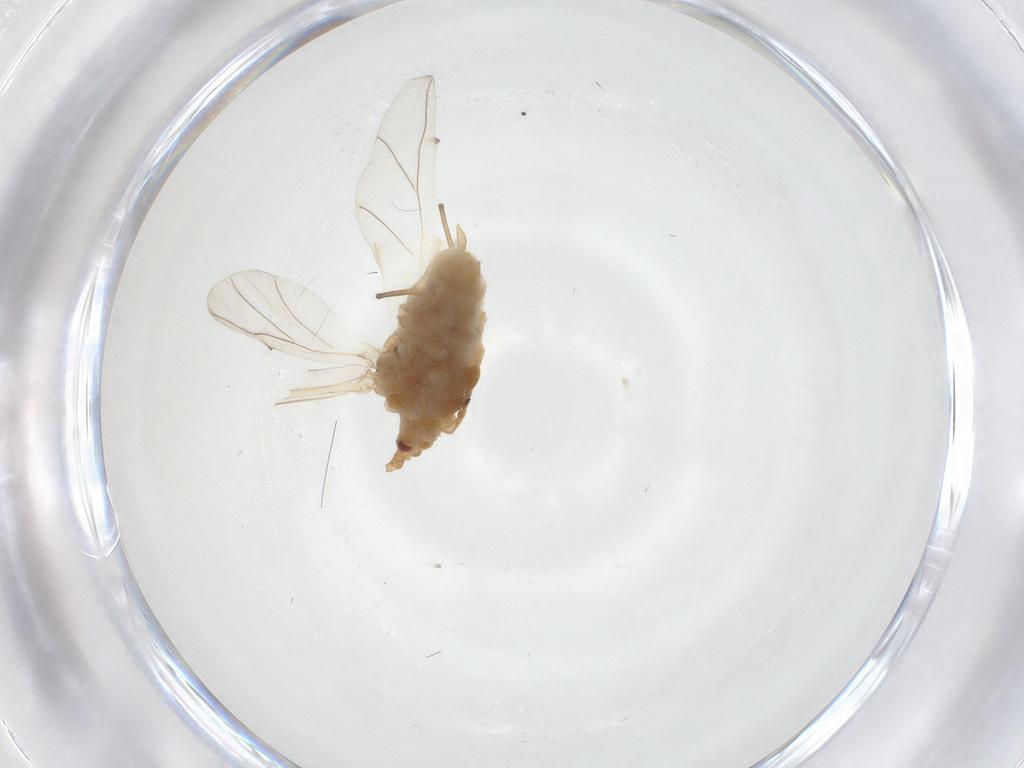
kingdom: Animalia
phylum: Arthropoda
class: Insecta
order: Hemiptera
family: Aphididae
